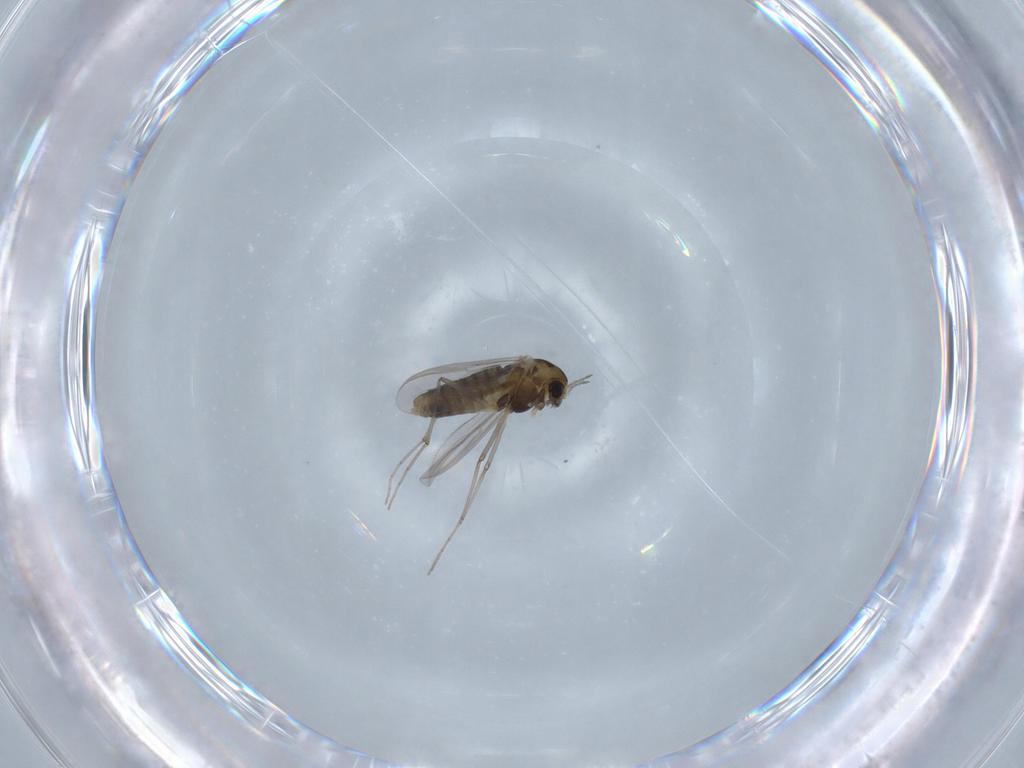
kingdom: Animalia
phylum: Arthropoda
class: Insecta
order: Diptera
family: Chironomidae
